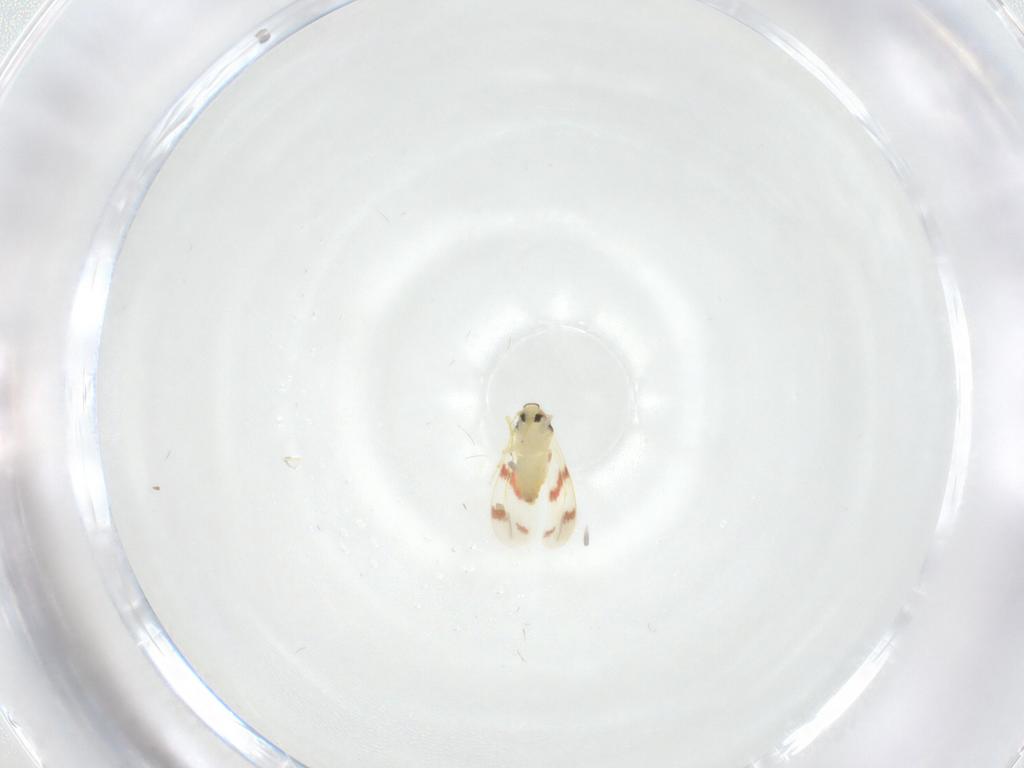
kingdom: Animalia
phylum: Arthropoda
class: Insecta
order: Hemiptera
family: Aleyrodidae
